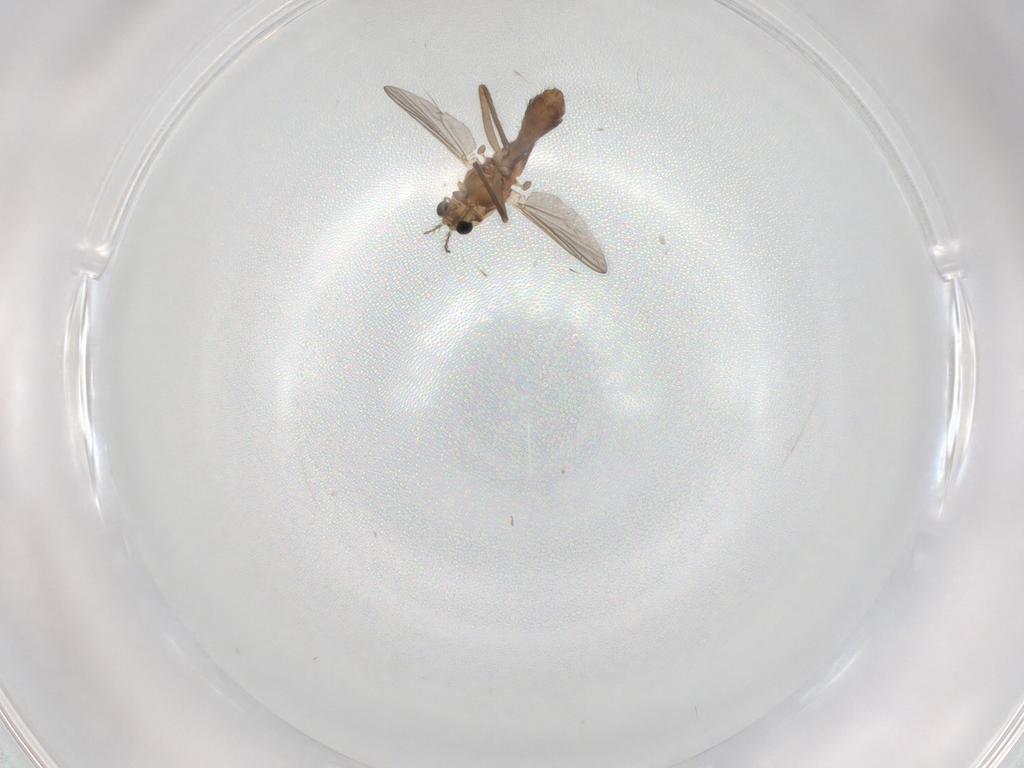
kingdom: Animalia
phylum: Arthropoda
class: Insecta
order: Diptera
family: Chironomidae
